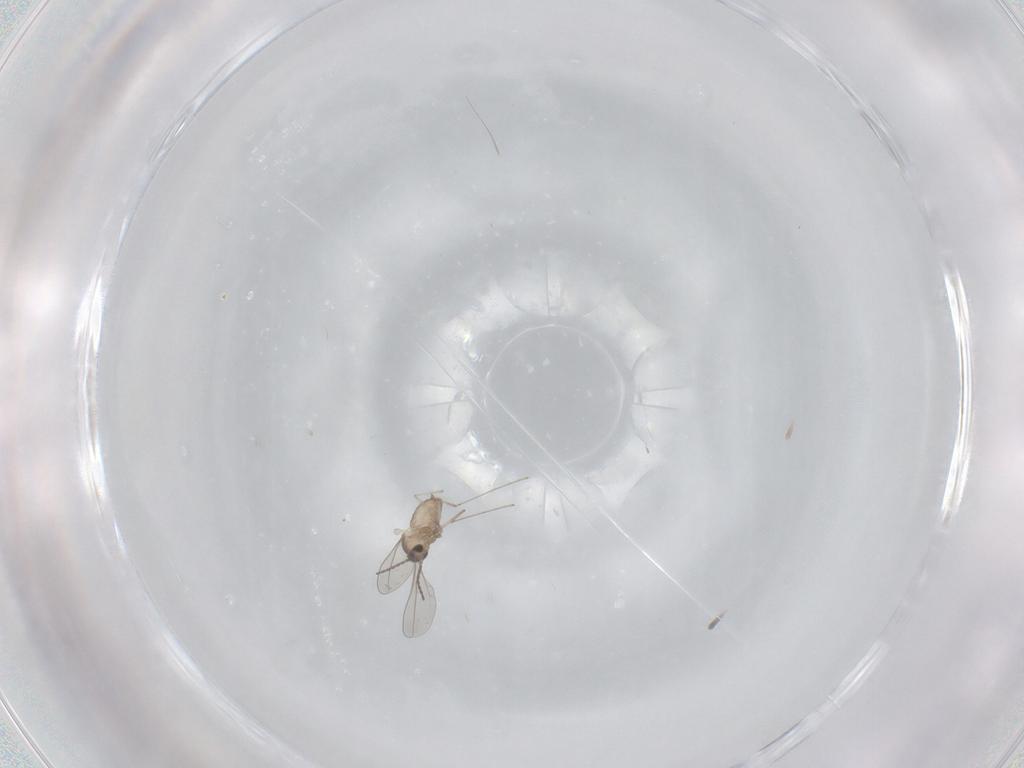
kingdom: Animalia
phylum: Arthropoda
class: Insecta
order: Diptera
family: Cecidomyiidae
